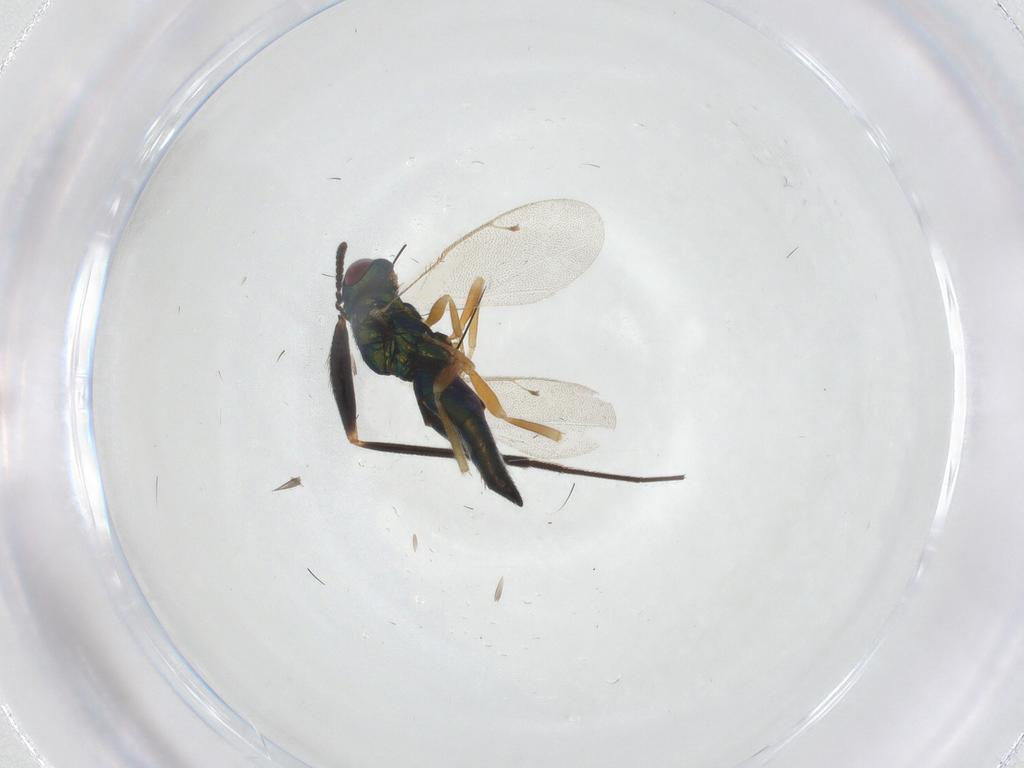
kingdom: Animalia
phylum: Arthropoda
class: Insecta
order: Hymenoptera
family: Pteromalidae
